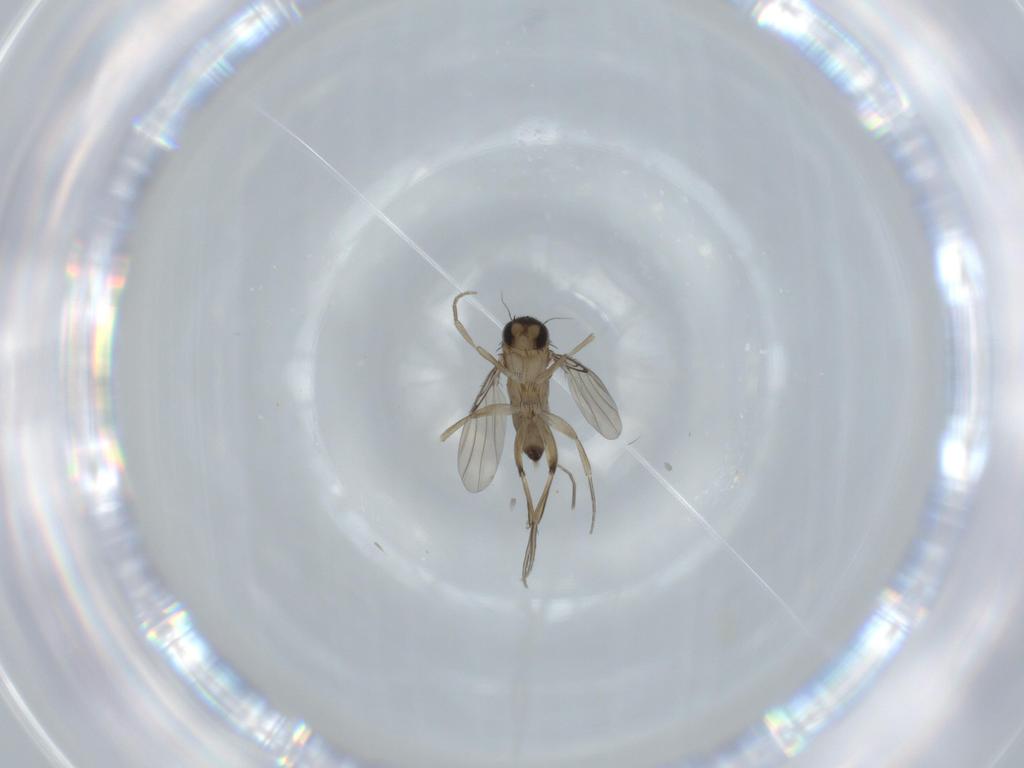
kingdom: Animalia
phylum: Arthropoda
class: Insecta
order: Diptera
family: Phoridae
